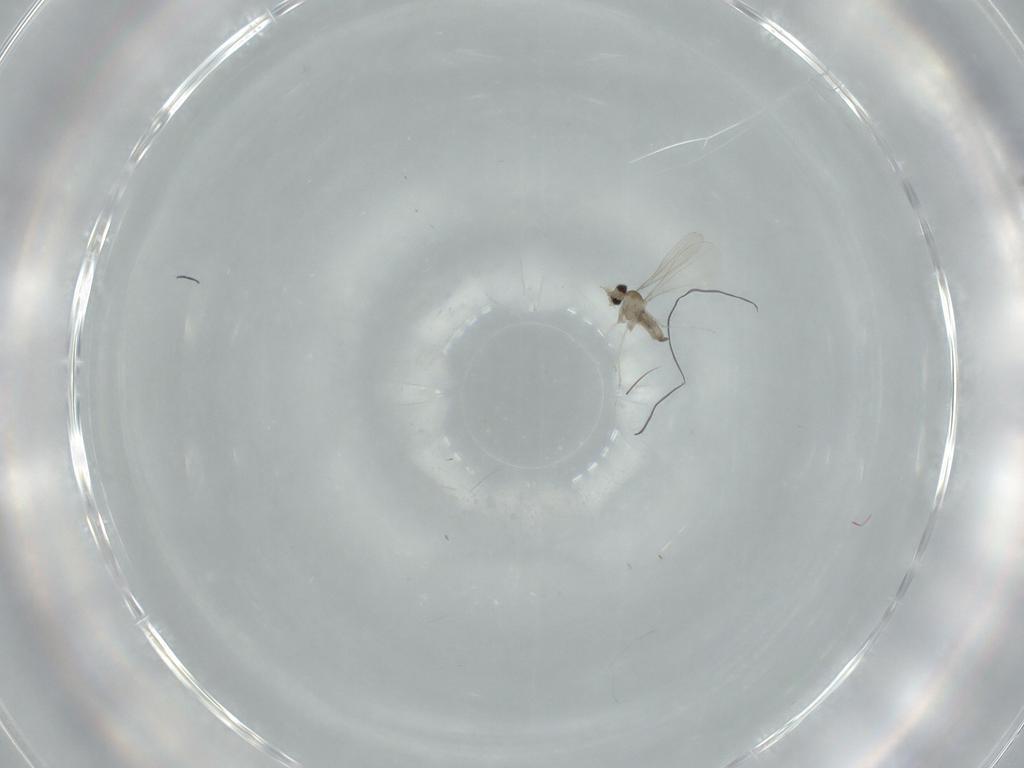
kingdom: Animalia
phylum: Arthropoda
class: Insecta
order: Diptera
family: Cecidomyiidae
